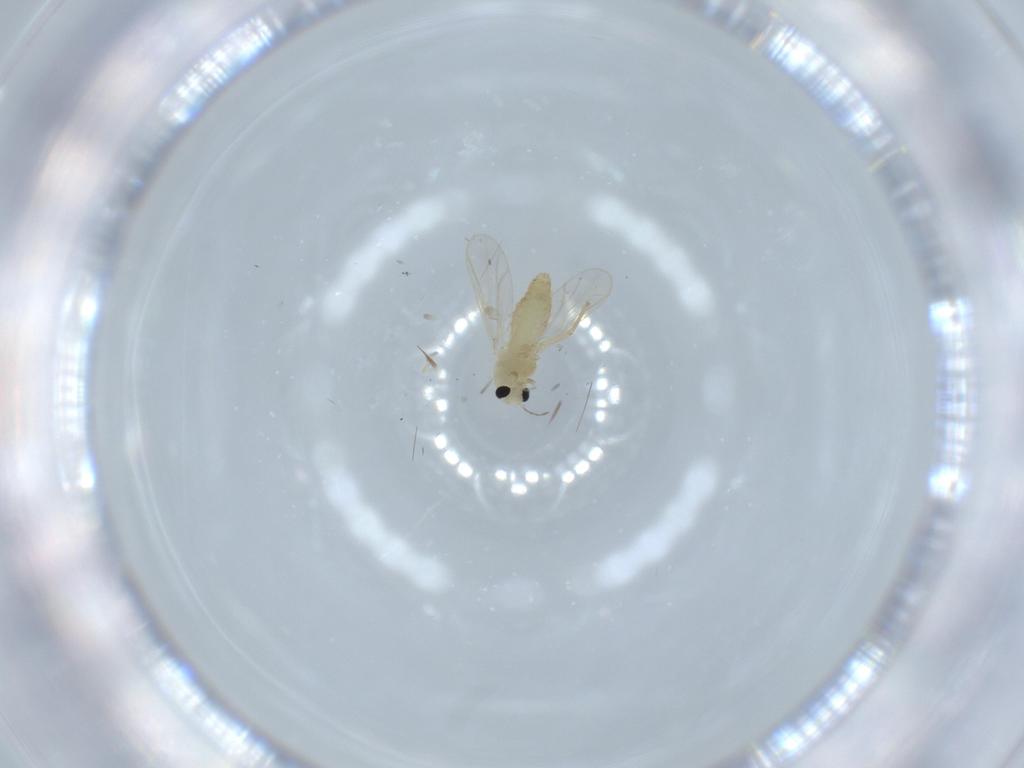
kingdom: Animalia
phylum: Arthropoda
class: Insecta
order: Diptera
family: Chironomidae
